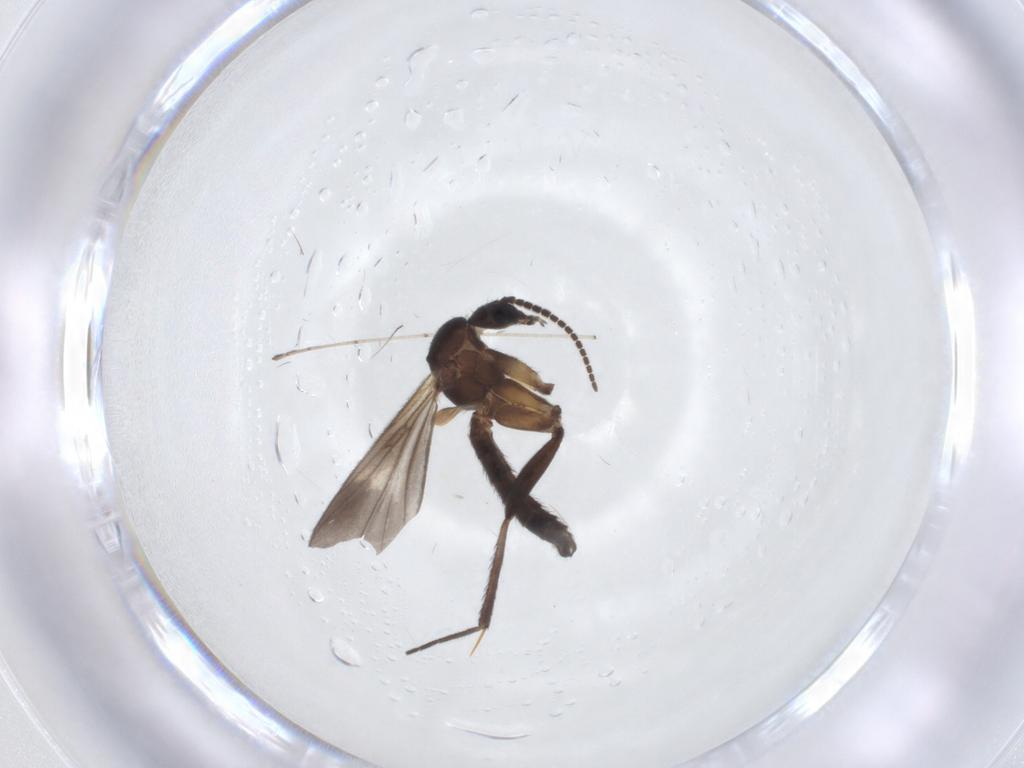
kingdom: Animalia
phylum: Arthropoda
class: Insecta
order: Diptera
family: Mycetophilidae
